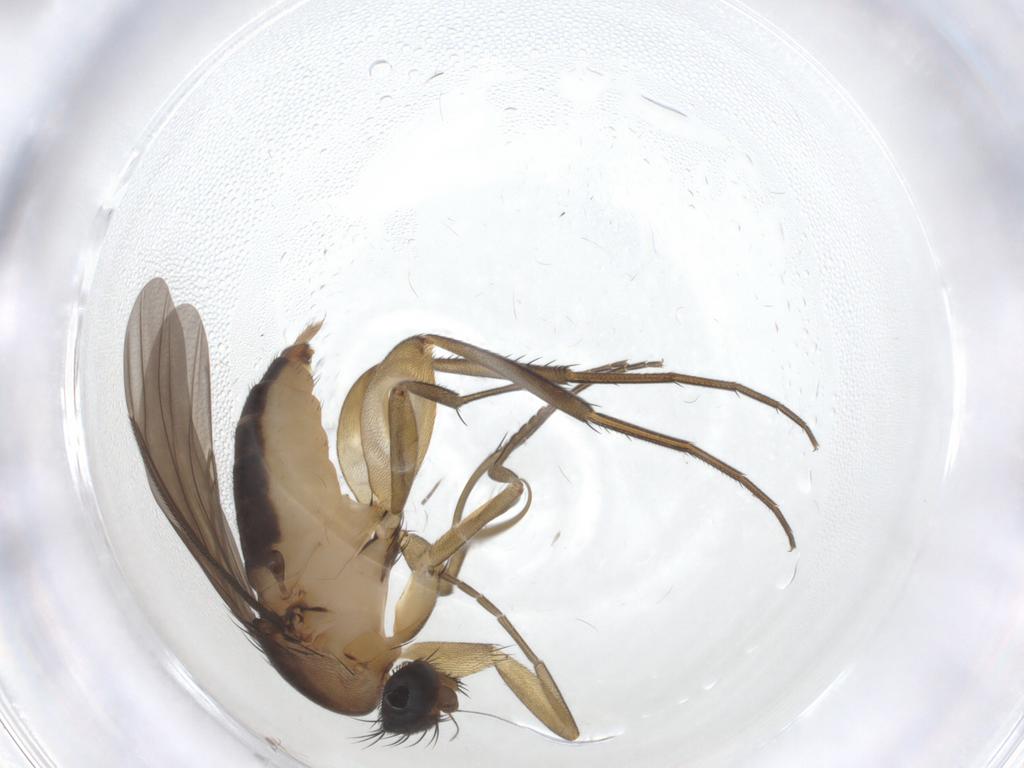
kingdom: Animalia
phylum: Arthropoda
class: Insecta
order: Diptera
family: Phoridae
